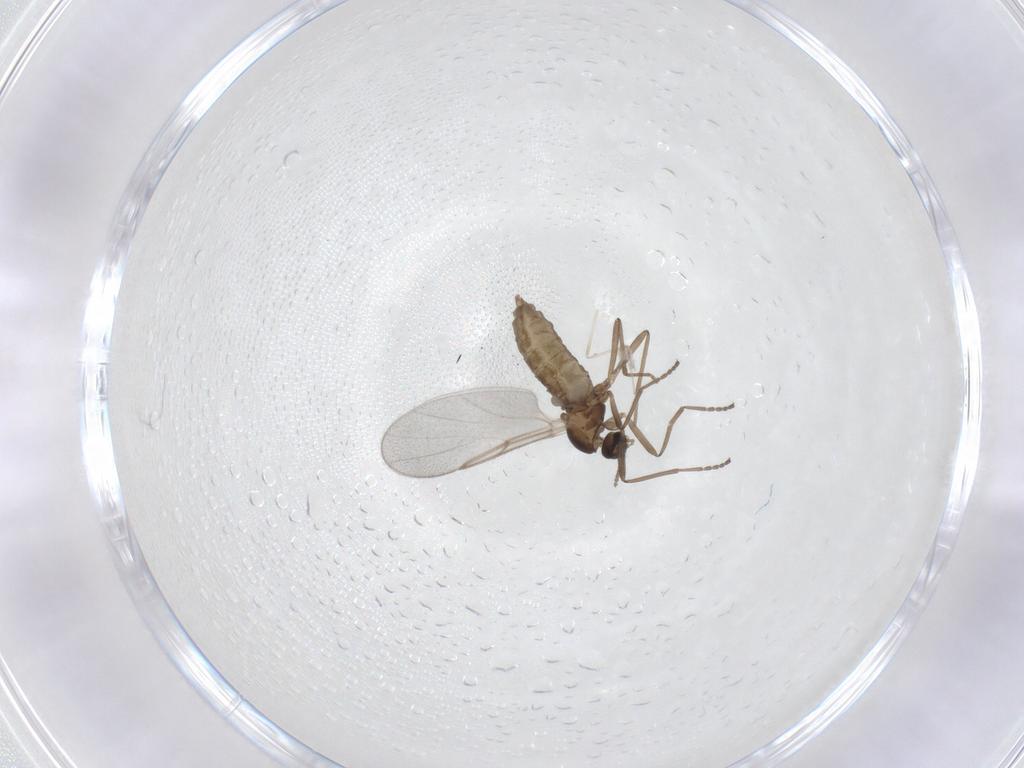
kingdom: Animalia
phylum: Arthropoda
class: Insecta
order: Diptera
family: Cecidomyiidae
